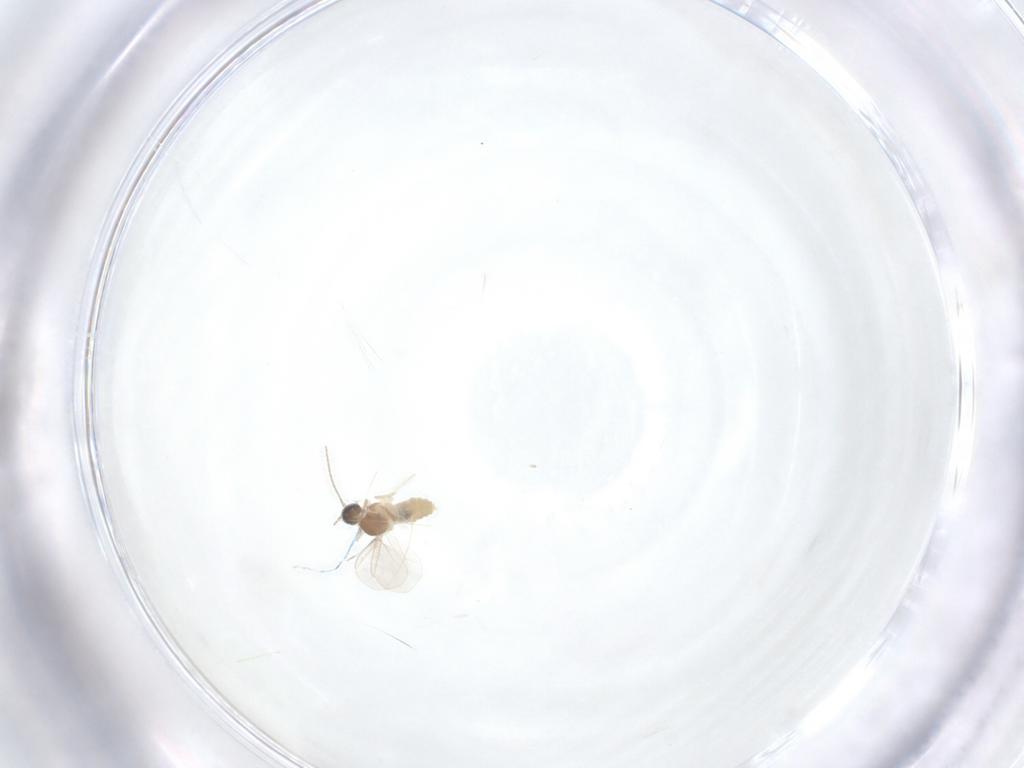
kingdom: Animalia
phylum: Arthropoda
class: Insecta
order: Diptera
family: Cecidomyiidae
